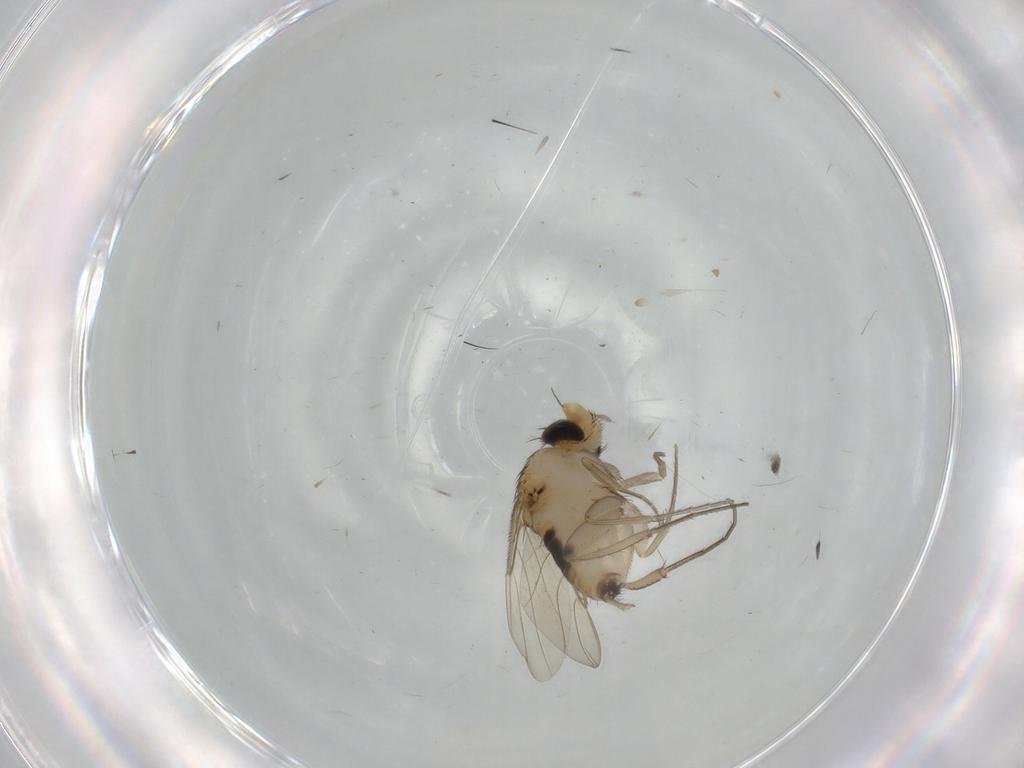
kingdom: Animalia
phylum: Arthropoda
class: Insecta
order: Diptera
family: Phoridae
